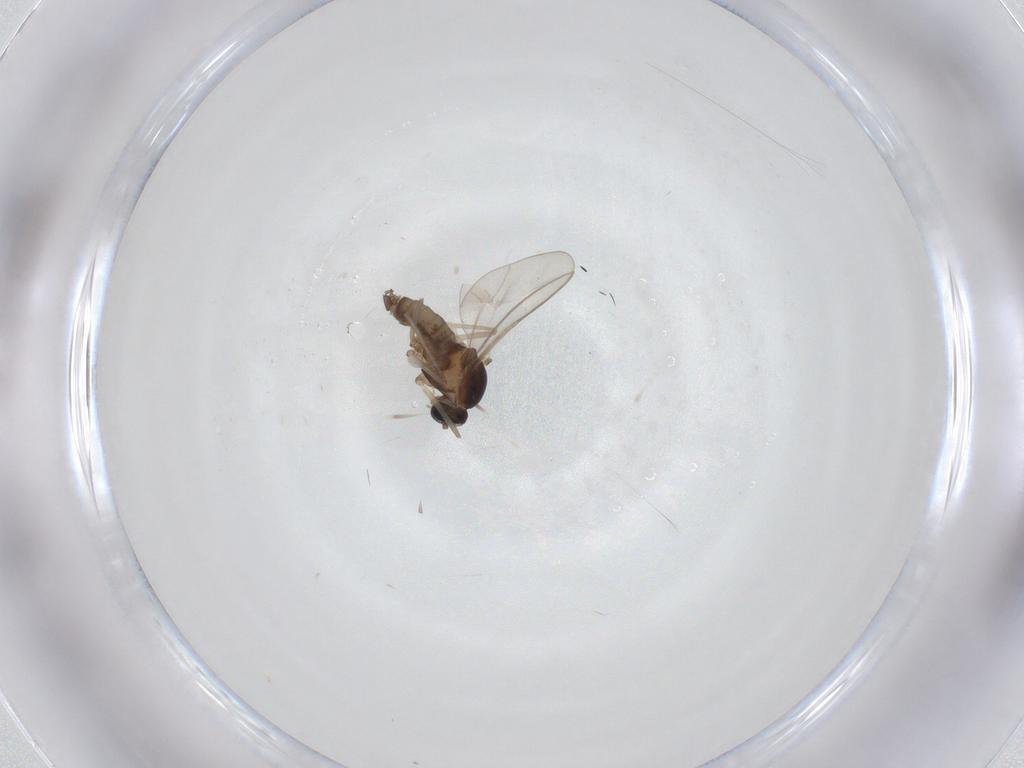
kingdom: Animalia
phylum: Arthropoda
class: Insecta
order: Diptera
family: Cecidomyiidae
